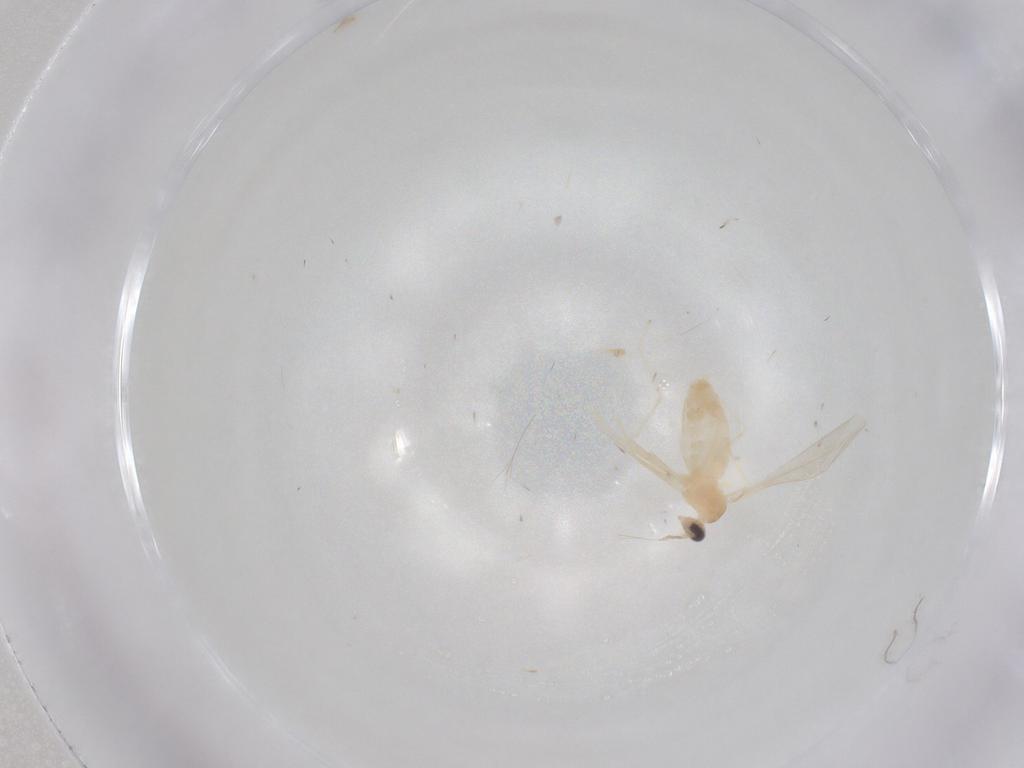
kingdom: Animalia
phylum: Arthropoda
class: Insecta
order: Diptera
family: Cecidomyiidae
